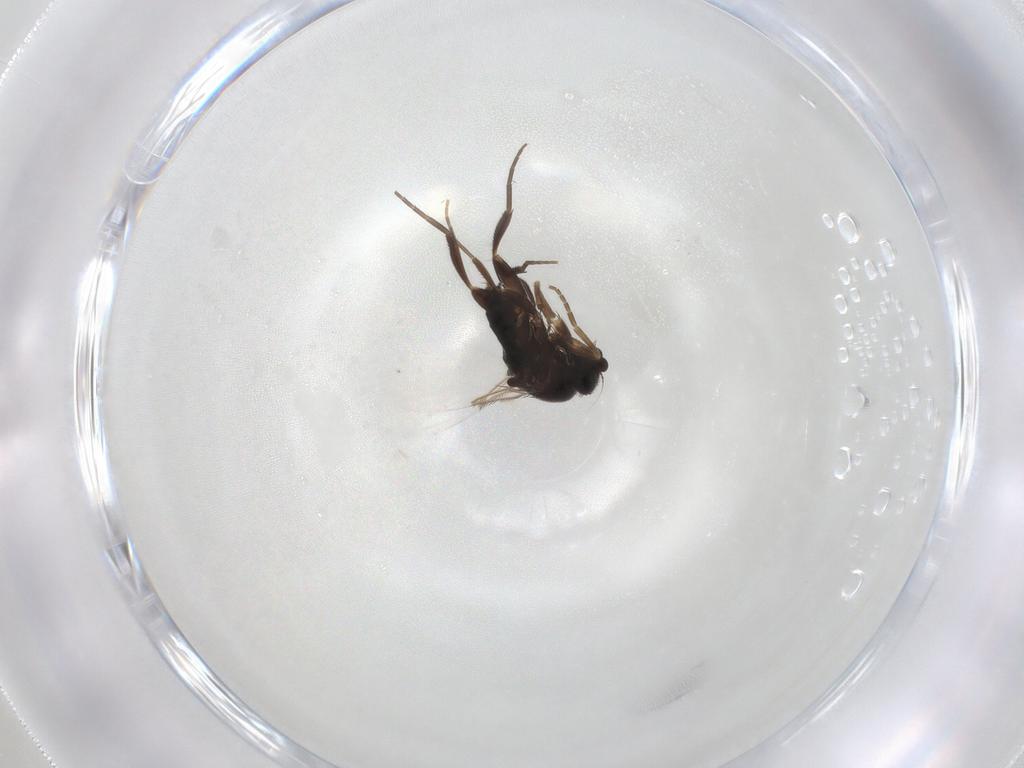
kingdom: Animalia
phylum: Arthropoda
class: Insecta
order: Diptera
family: Phoridae
